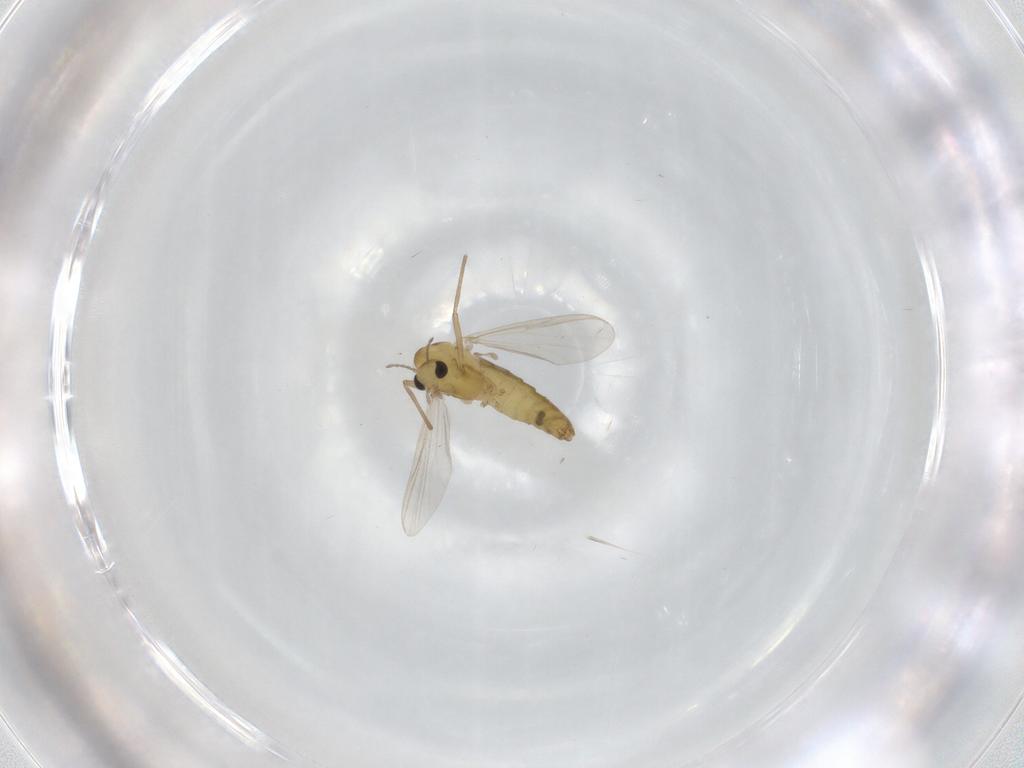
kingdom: Animalia
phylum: Arthropoda
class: Insecta
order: Diptera
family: Chironomidae
